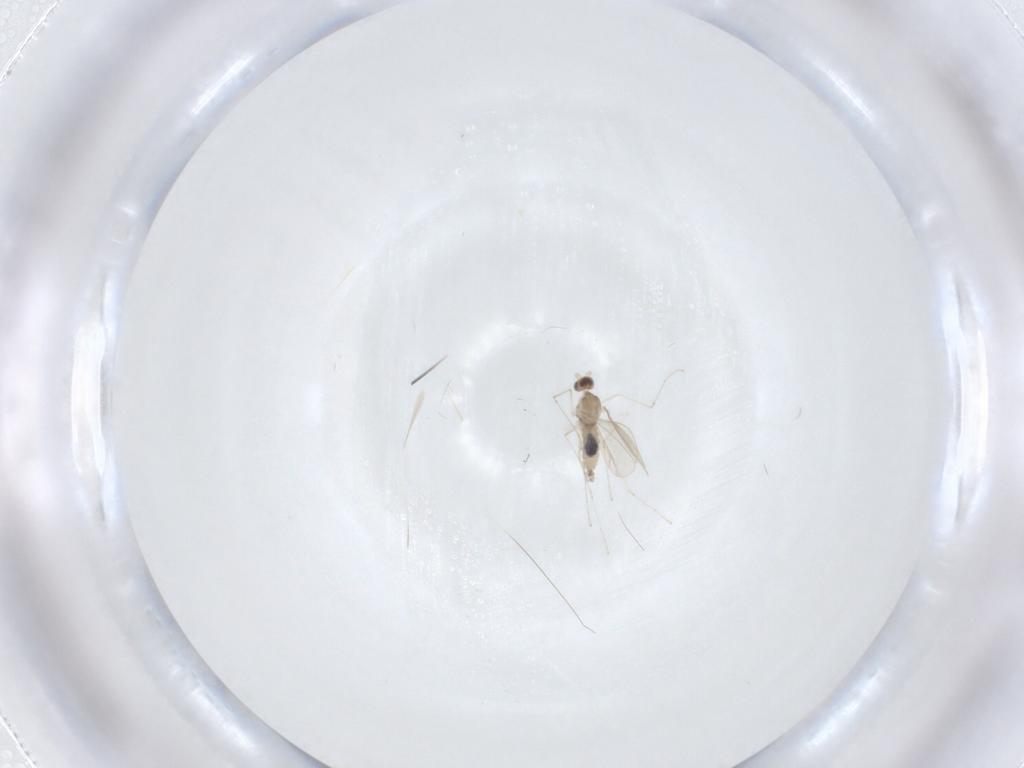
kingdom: Animalia
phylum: Arthropoda
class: Insecta
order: Diptera
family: Cecidomyiidae
